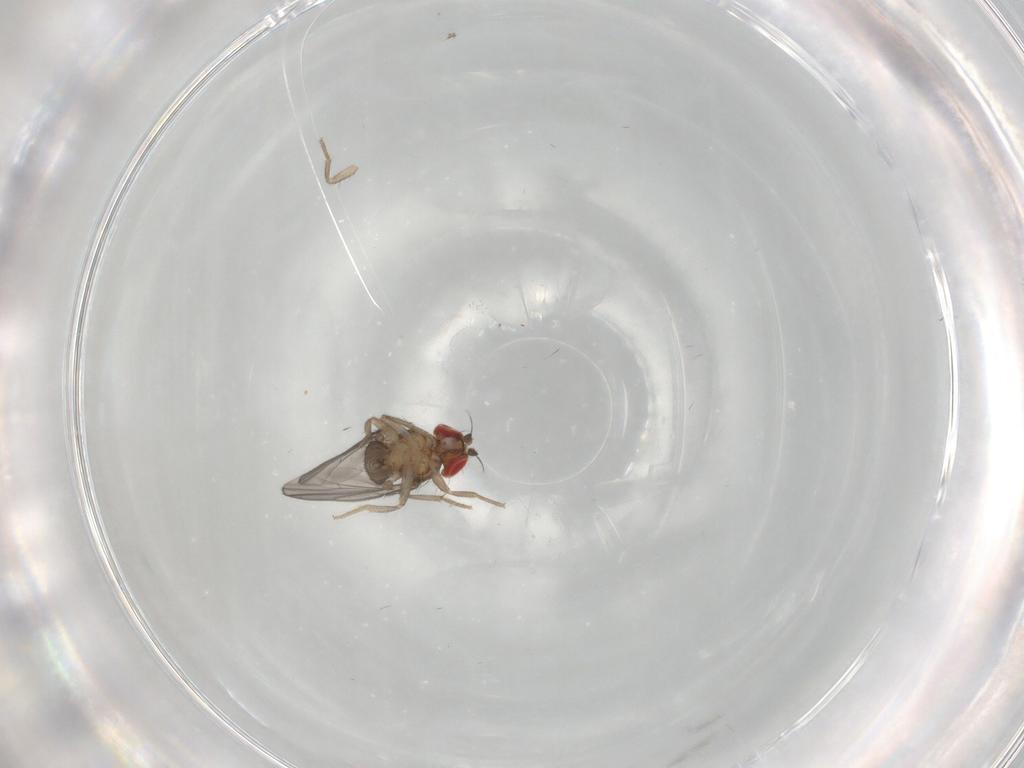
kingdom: Animalia
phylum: Arthropoda
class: Insecta
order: Diptera
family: Drosophilidae
